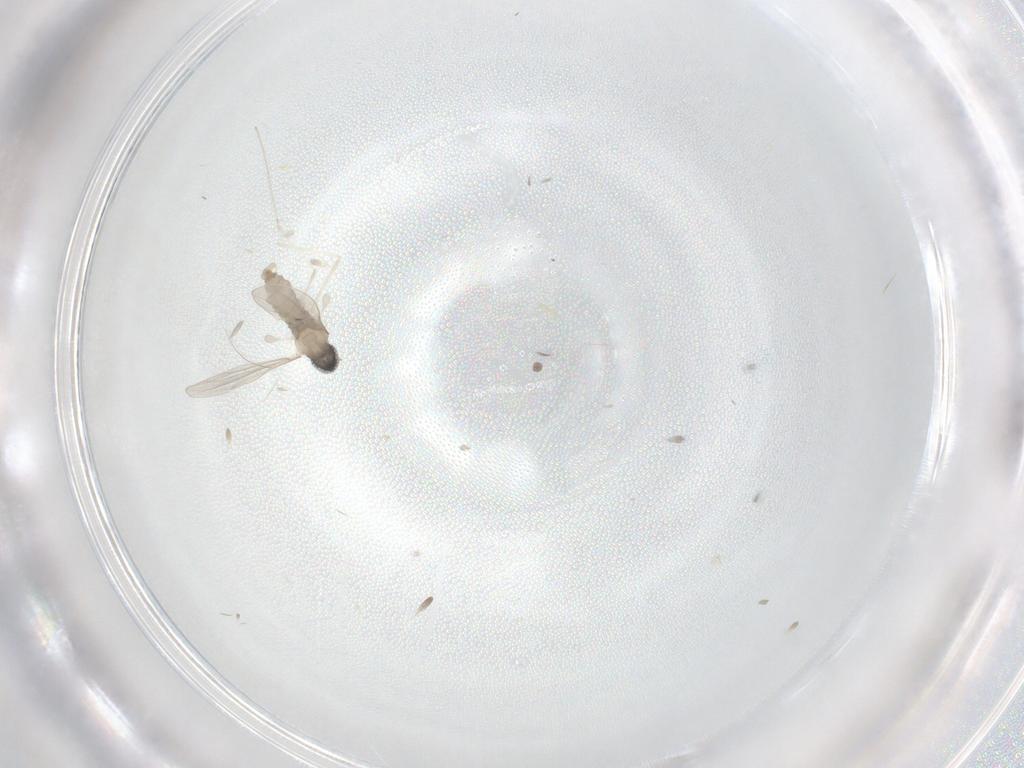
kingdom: Animalia
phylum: Arthropoda
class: Insecta
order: Diptera
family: Cecidomyiidae
